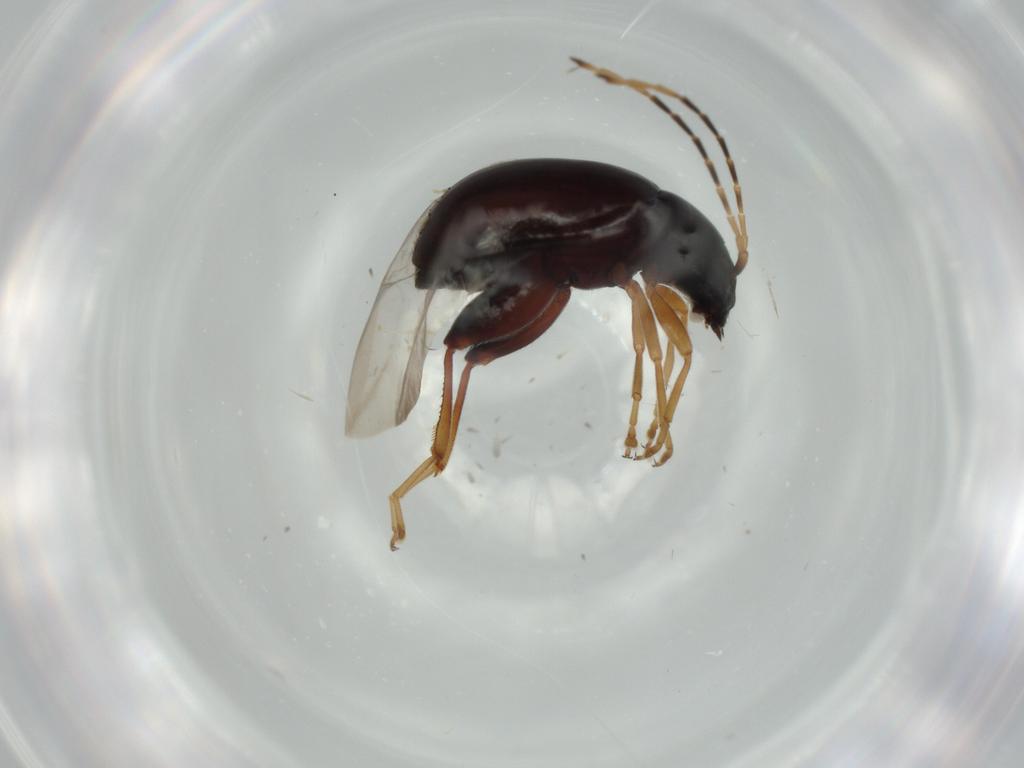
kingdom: Animalia
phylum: Arthropoda
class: Insecta
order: Coleoptera
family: Chrysomelidae
